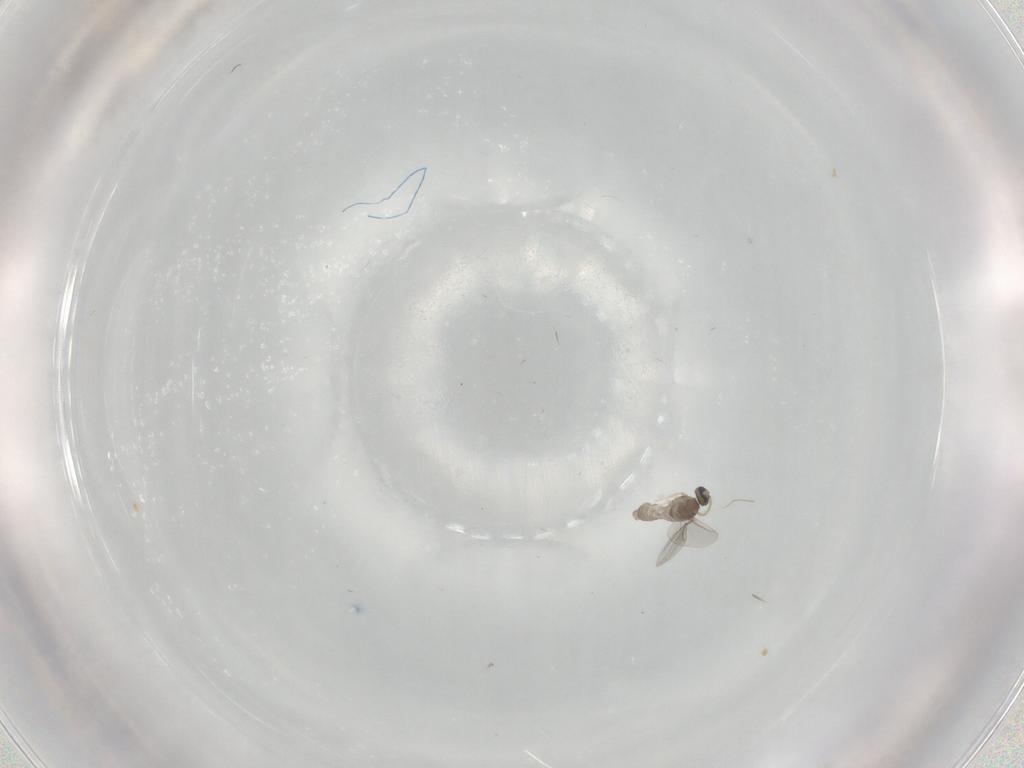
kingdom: Animalia
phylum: Arthropoda
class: Insecta
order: Diptera
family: Cecidomyiidae
